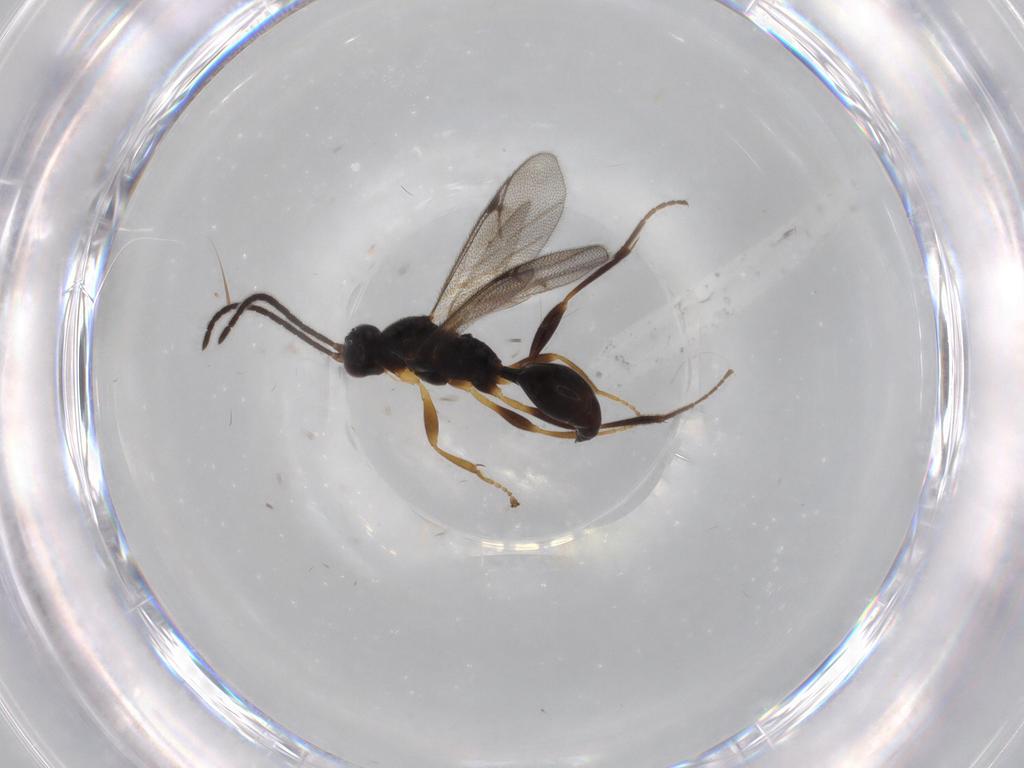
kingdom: Animalia
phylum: Arthropoda
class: Insecta
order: Hymenoptera
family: Proctotrupidae
